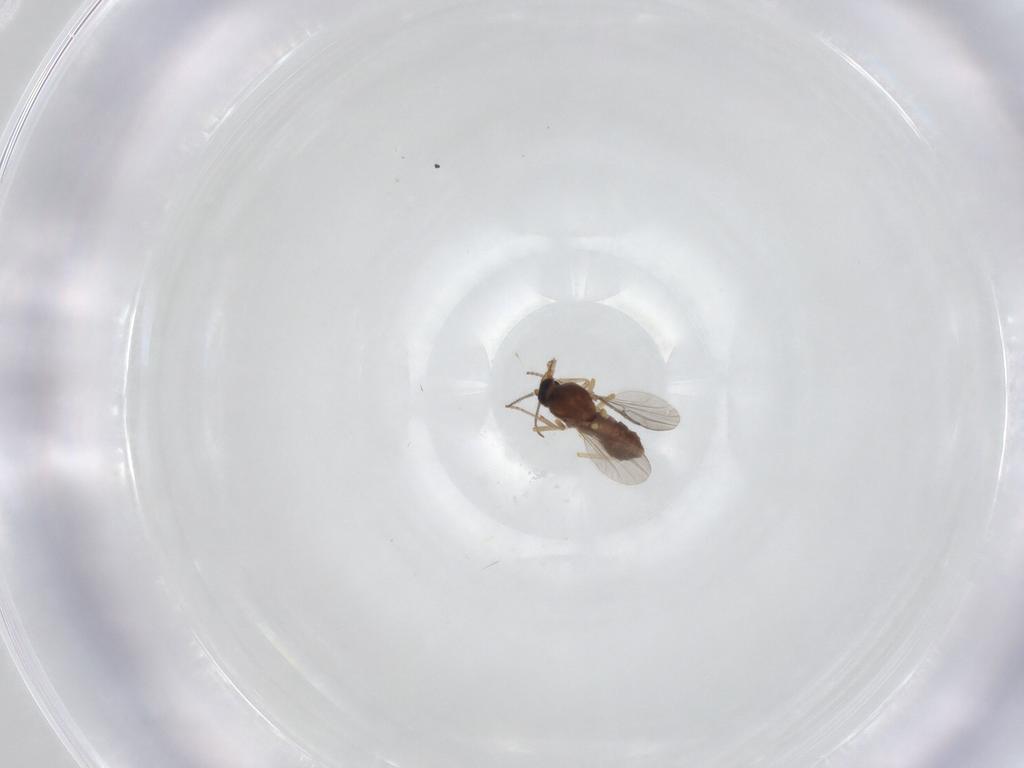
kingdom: Animalia
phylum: Arthropoda
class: Insecta
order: Diptera
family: Ceratopogonidae
